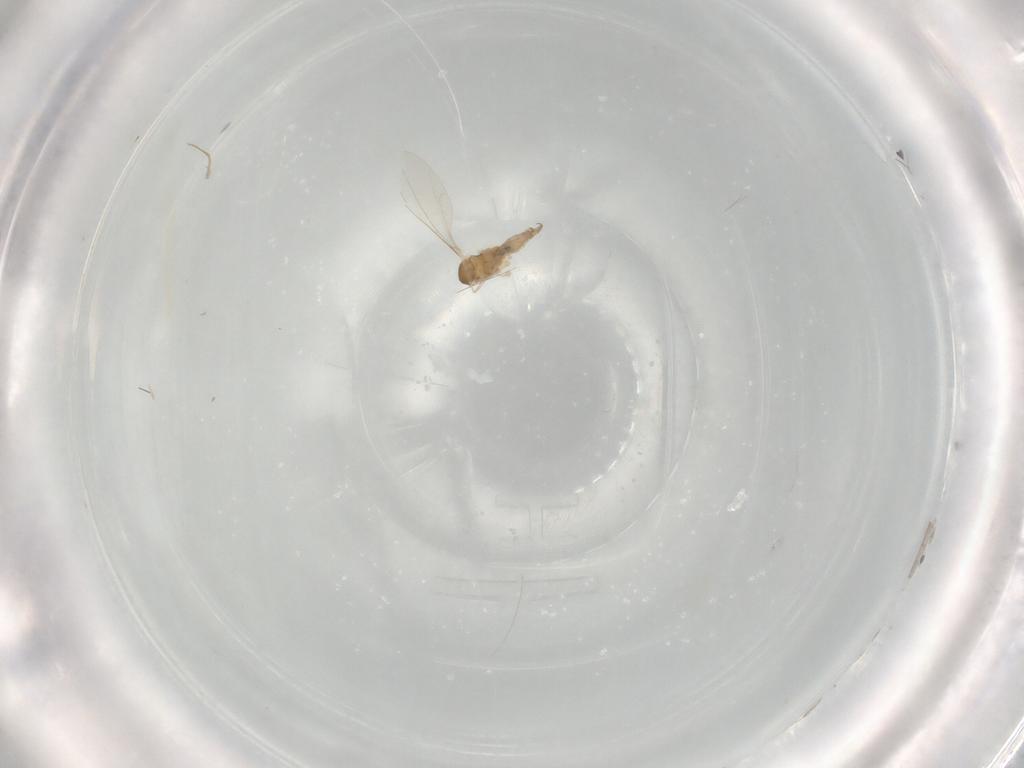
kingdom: Animalia
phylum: Arthropoda
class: Insecta
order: Diptera
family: Cecidomyiidae
